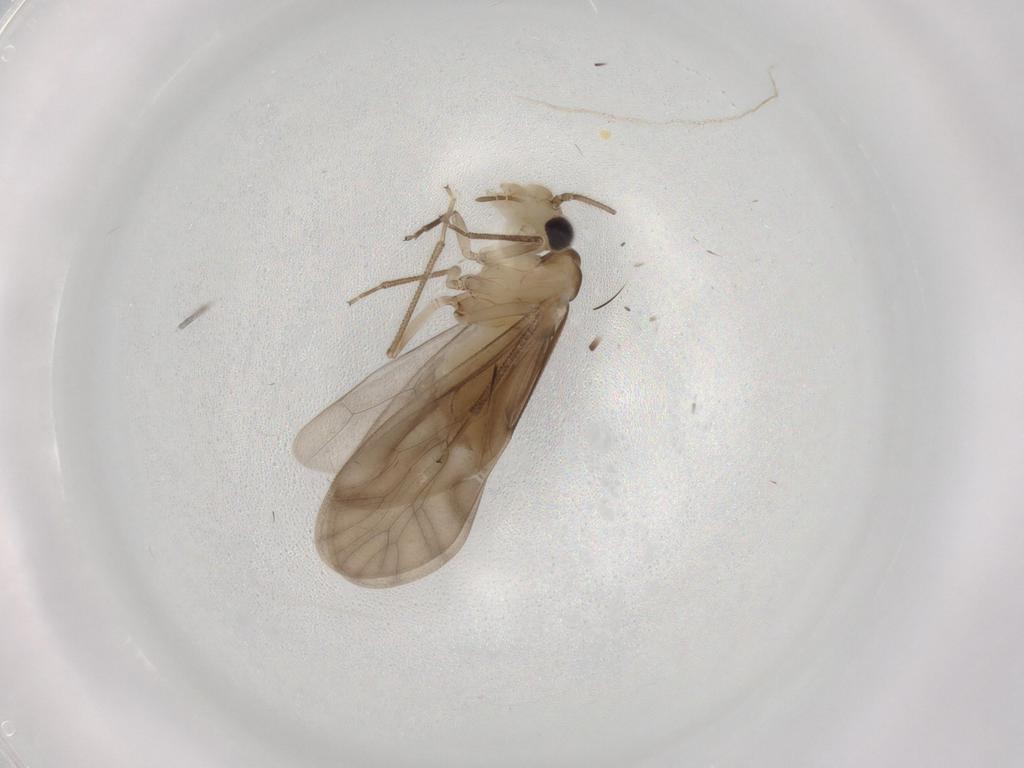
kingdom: Animalia
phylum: Arthropoda
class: Insecta
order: Psocodea
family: Caeciliusidae
